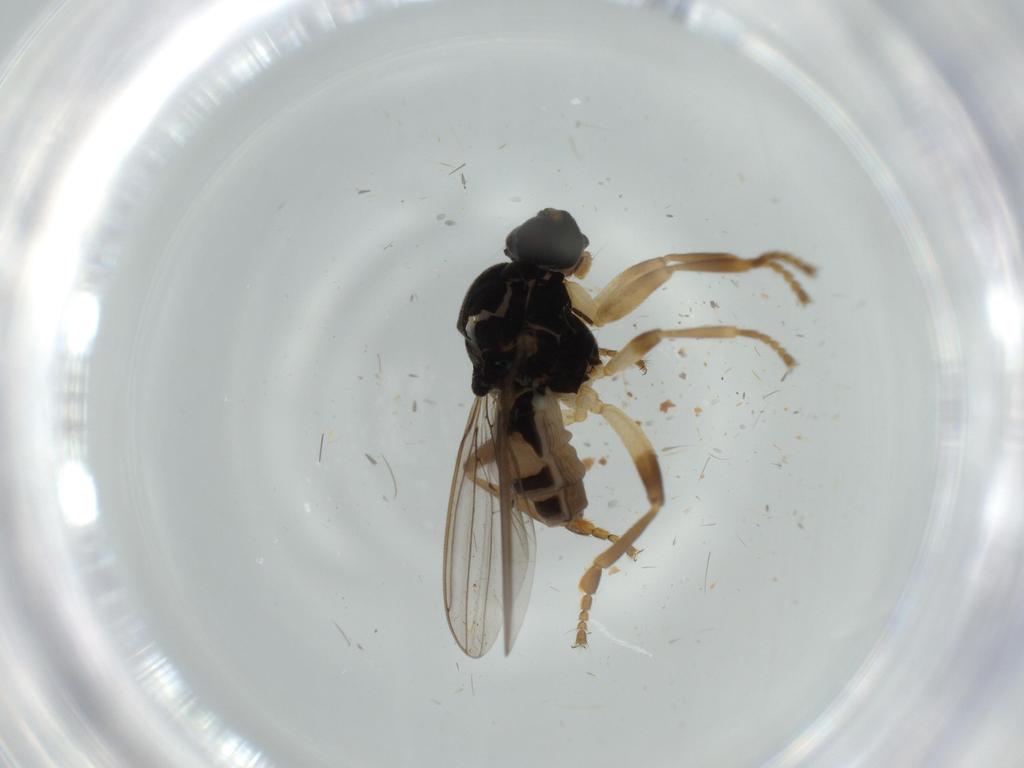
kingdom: Animalia
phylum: Arthropoda
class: Insecta
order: Diptera
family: Sphaeroceridae
